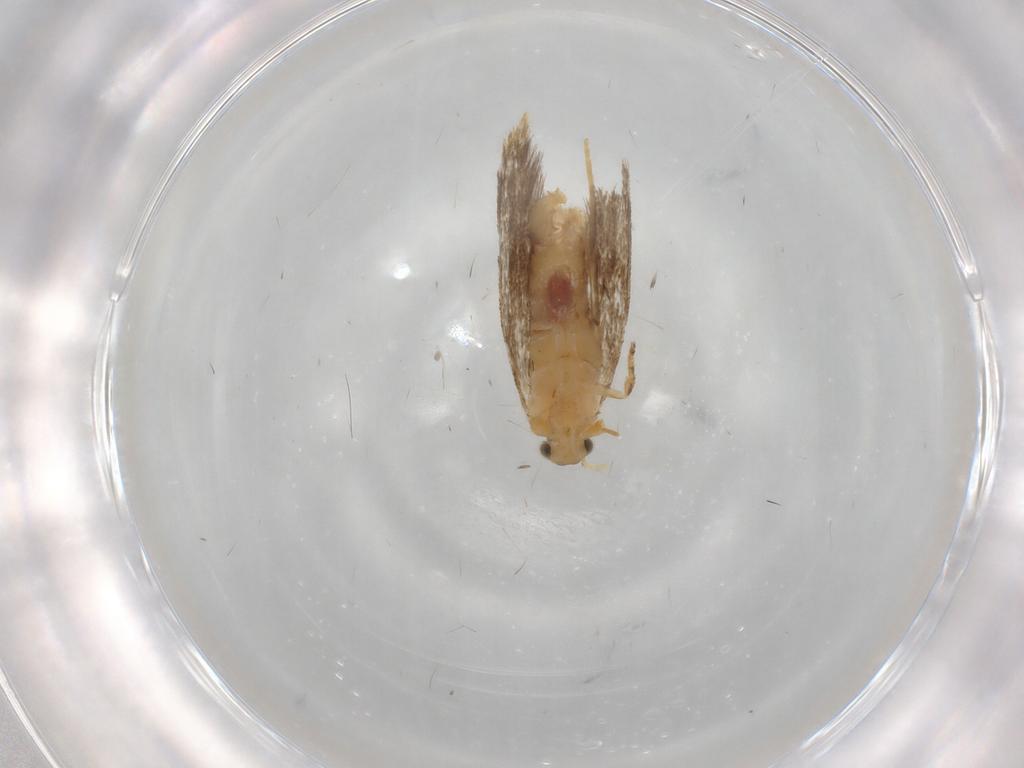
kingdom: Animalia
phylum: Arthropoda
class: Insecta
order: Lepidoptera
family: Dryadaulidae
